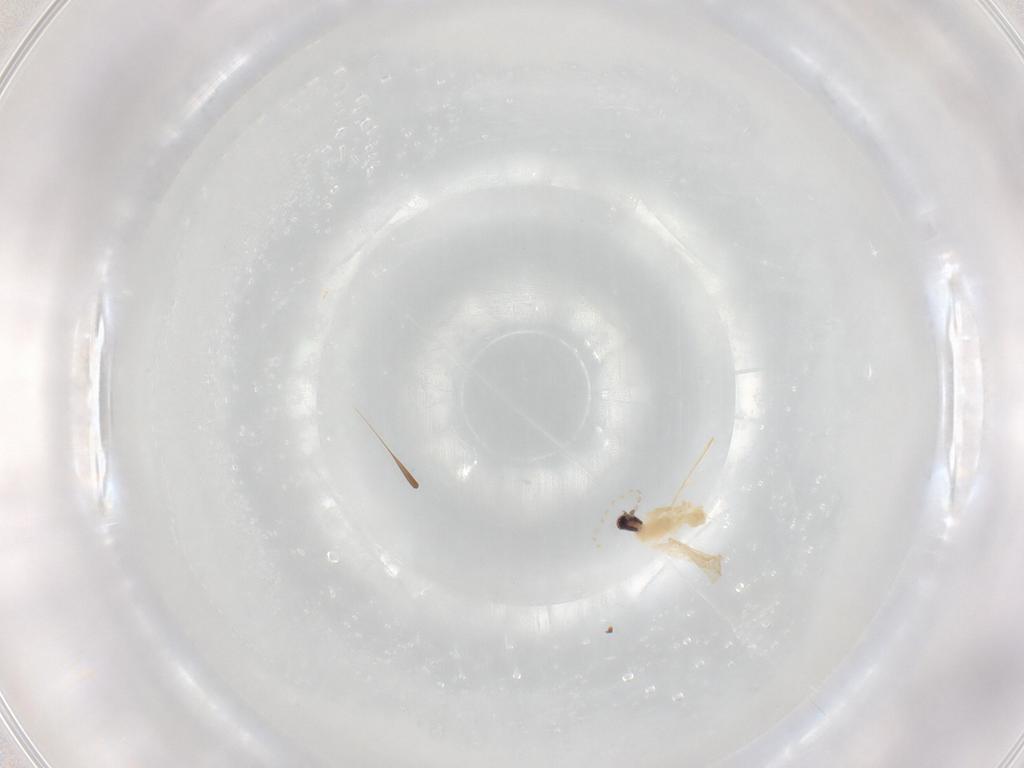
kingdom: Animalia
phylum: Arthropoda
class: Insecta
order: Diptera
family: Cecidomyiidae
